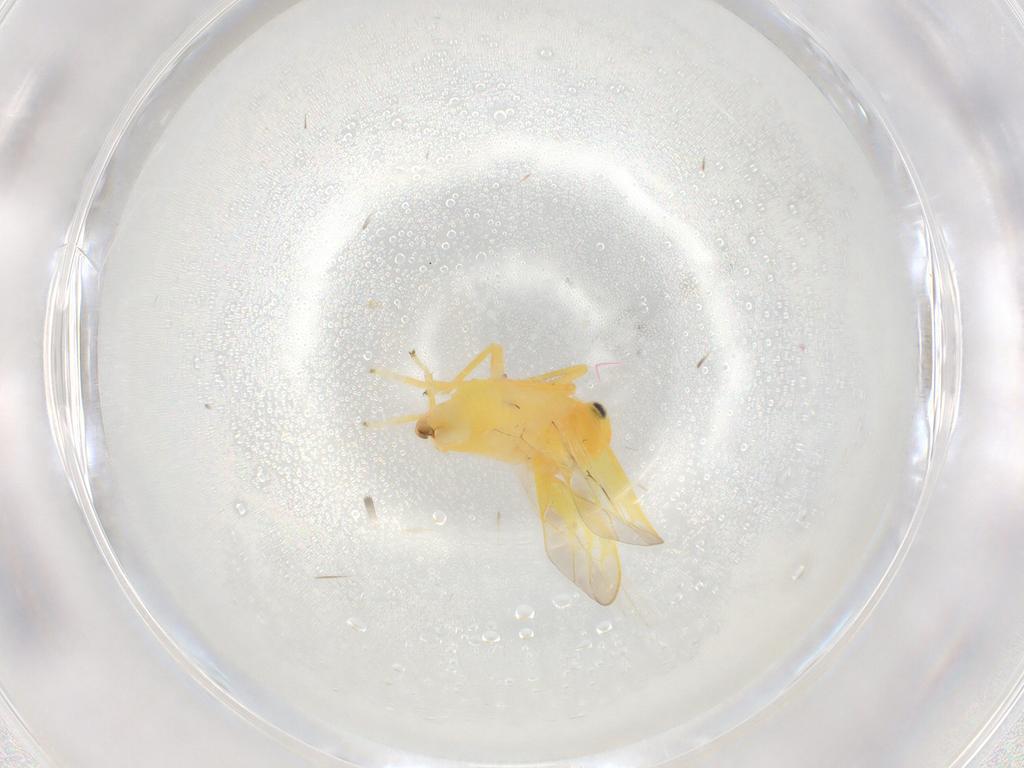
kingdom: Animalia
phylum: Arthropoda
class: Insecta
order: Hemiptera
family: Cicadellidae
